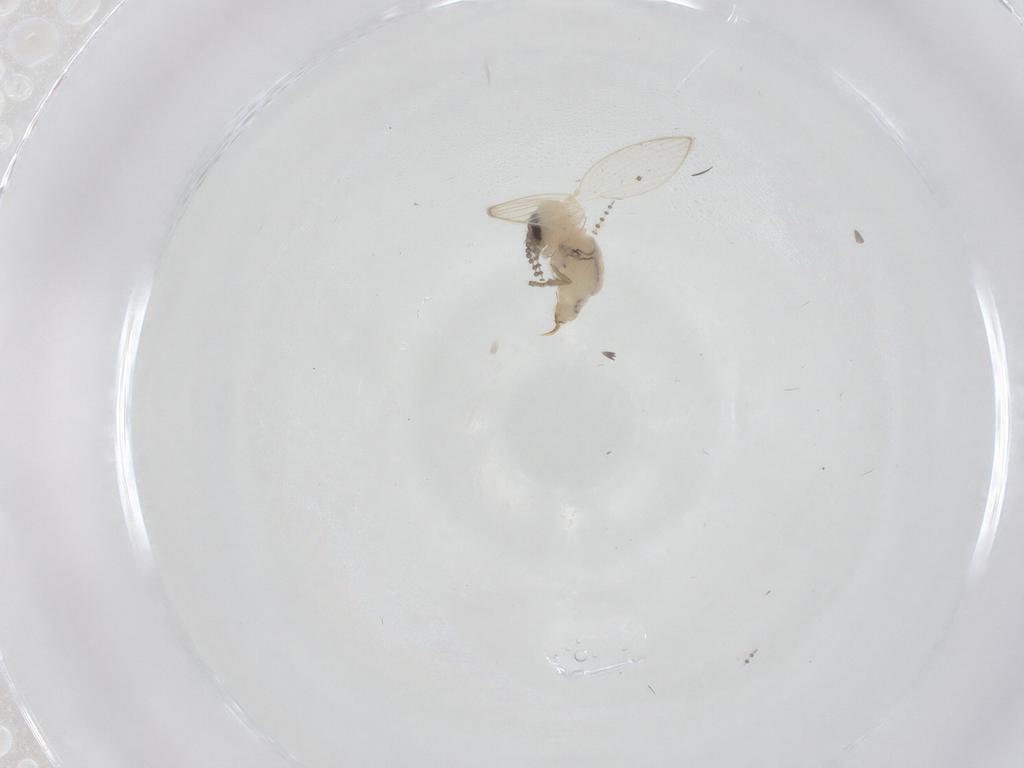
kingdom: Animalia
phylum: Arthropoda
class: Insecta
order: Diptera
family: Psychodidae
